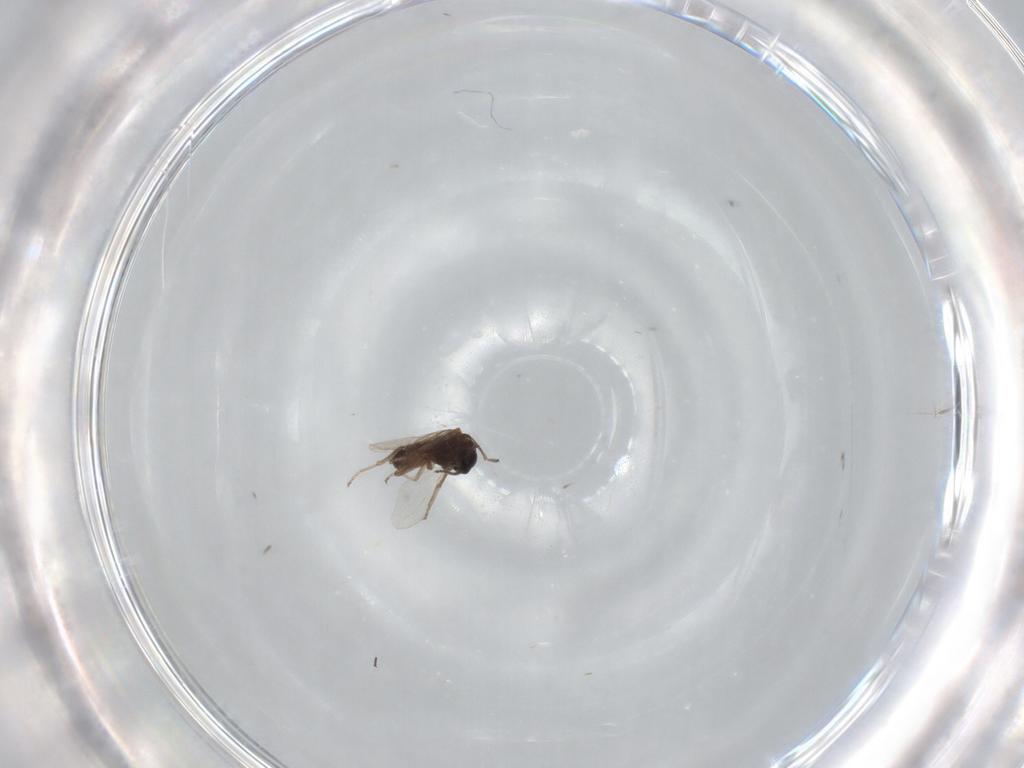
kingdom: Animalia
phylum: Arthropoda
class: Insecta
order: Diptera
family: Ceratopogonidae
